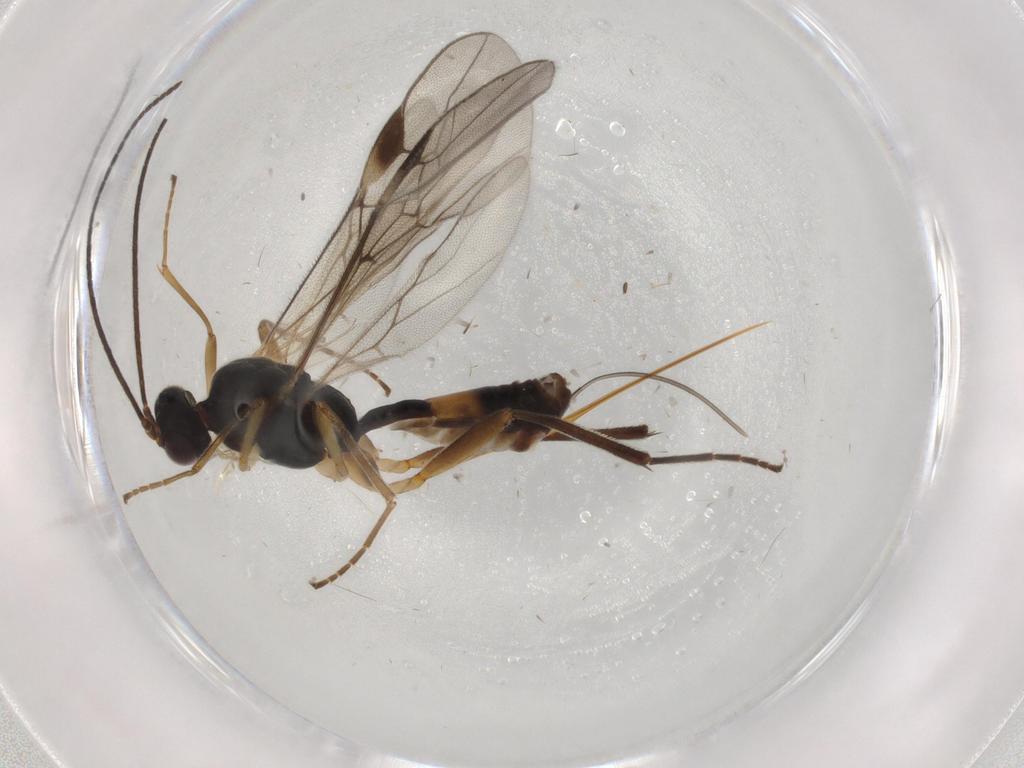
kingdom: Animalia
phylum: Arthropoda
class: Insecta
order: Hymenoptera
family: Braconidae
